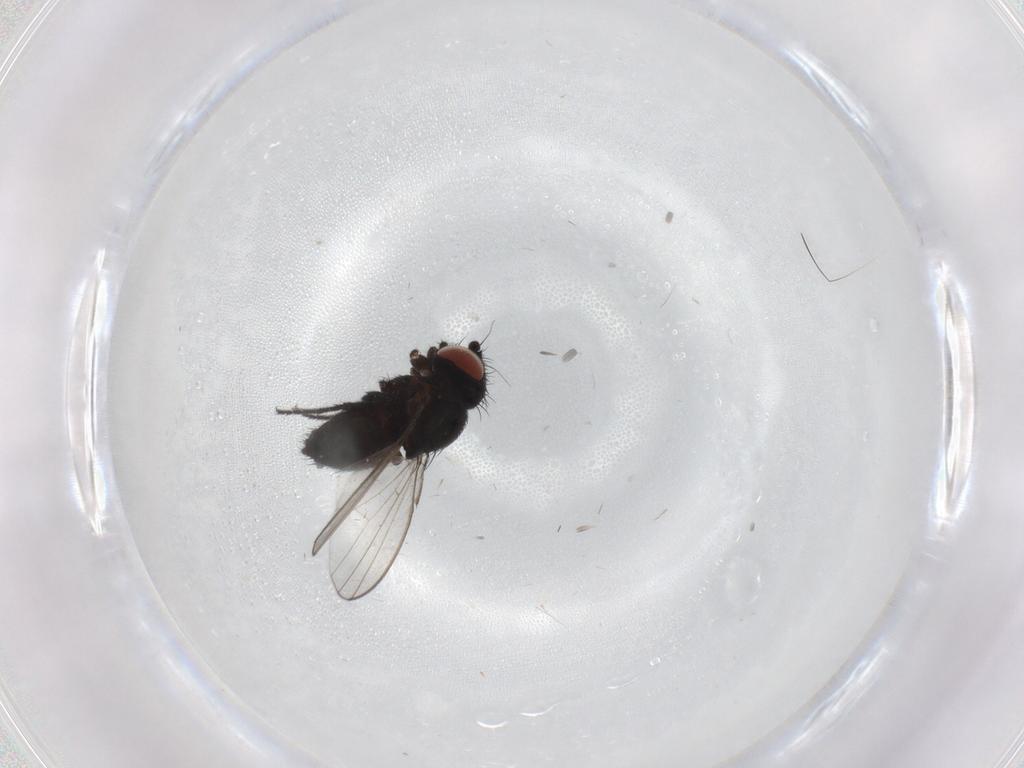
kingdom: Animalia
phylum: Arthropoda
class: Insecta
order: Diptera
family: Milichiidae
